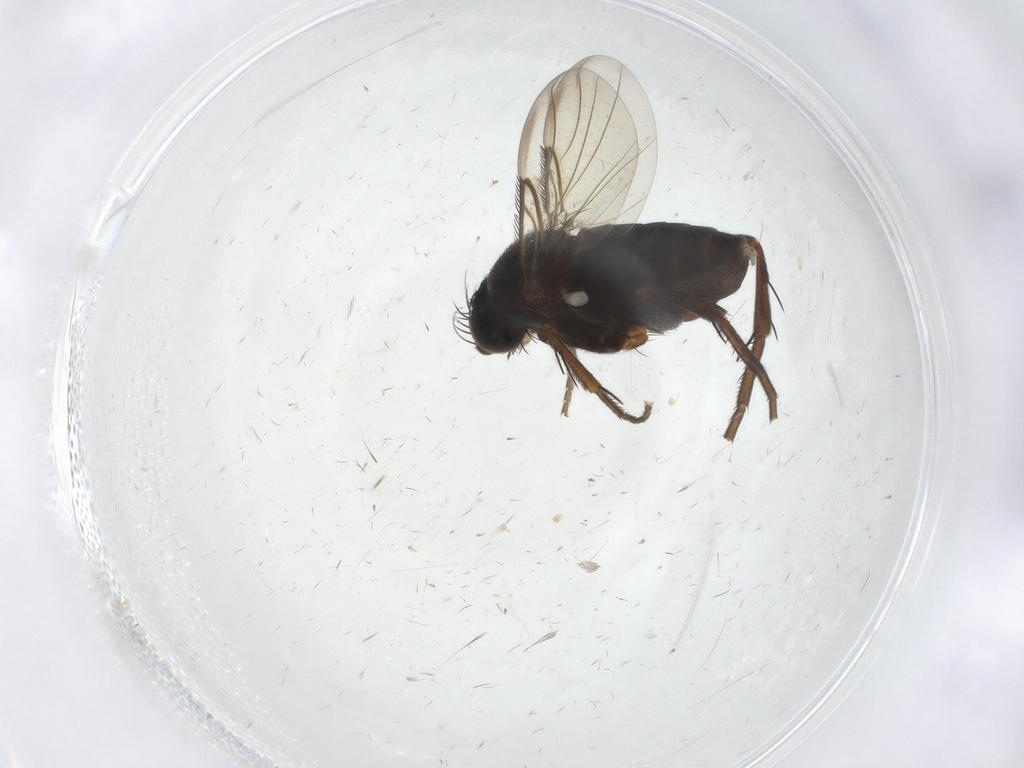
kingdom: Animalia
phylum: Arthropoda
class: Insecta
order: Diptera
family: Phoridae
